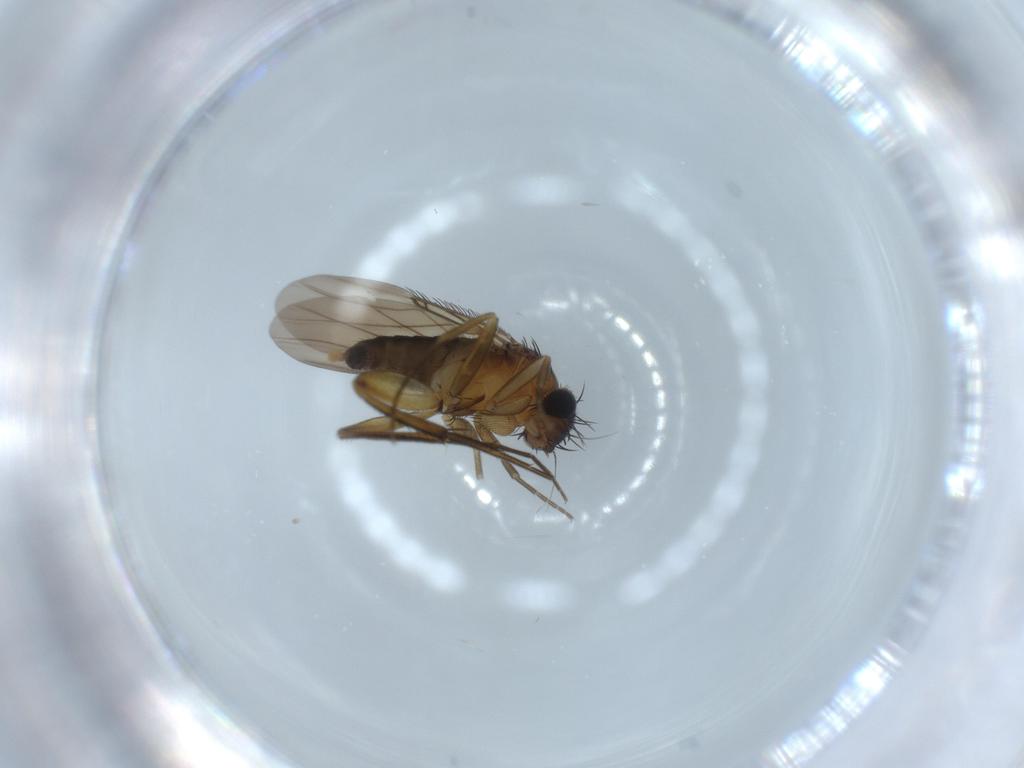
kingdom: Animalia
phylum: Arthropoda
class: Insecta
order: Diptera
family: Phoridae
